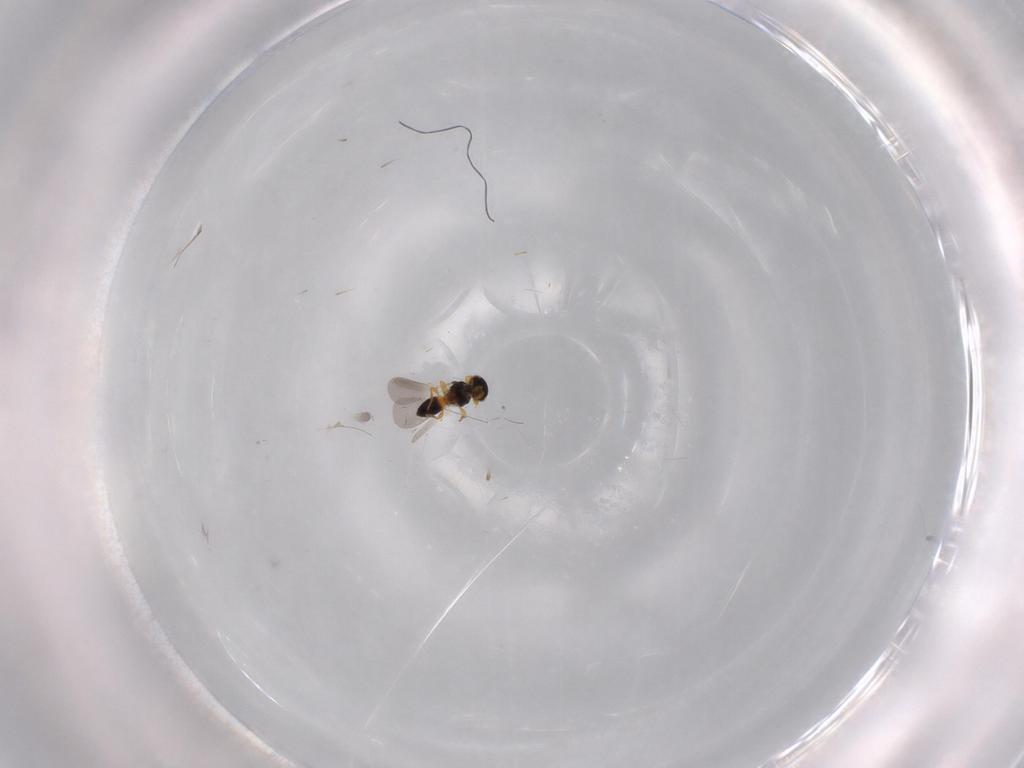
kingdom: Animalia
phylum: Arthropoda
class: Insecta
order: Hymenoptera
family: Platygastridae
